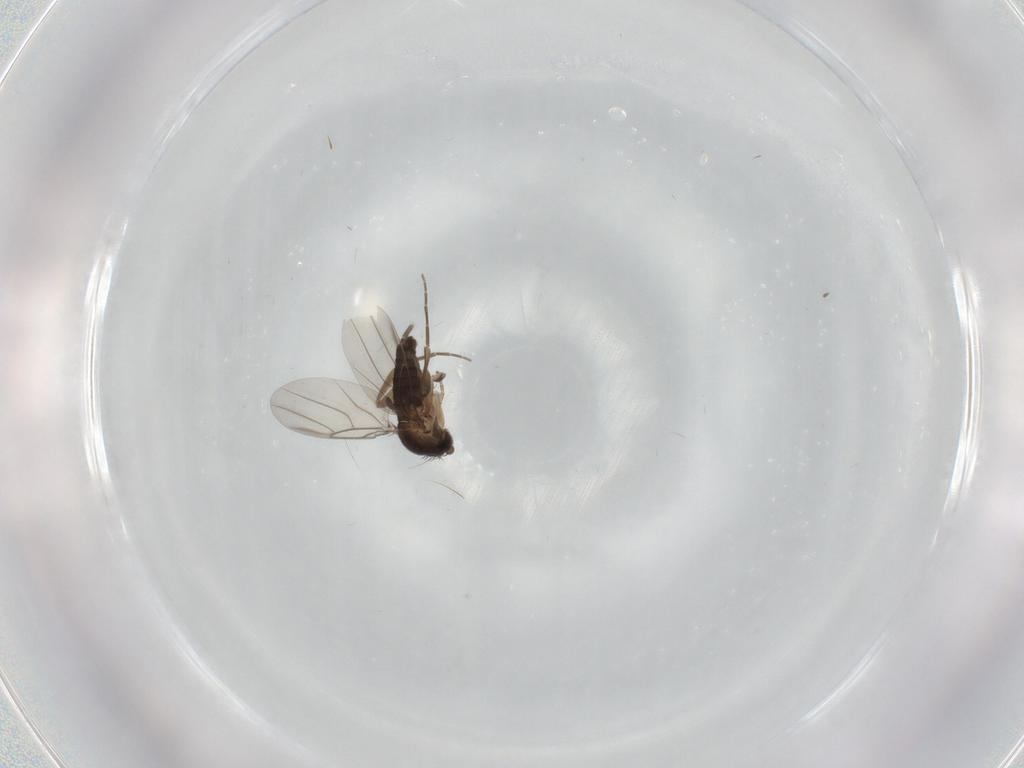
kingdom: Animalia
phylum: Arthropoda
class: Insecta
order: Diptera
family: Phoridae
